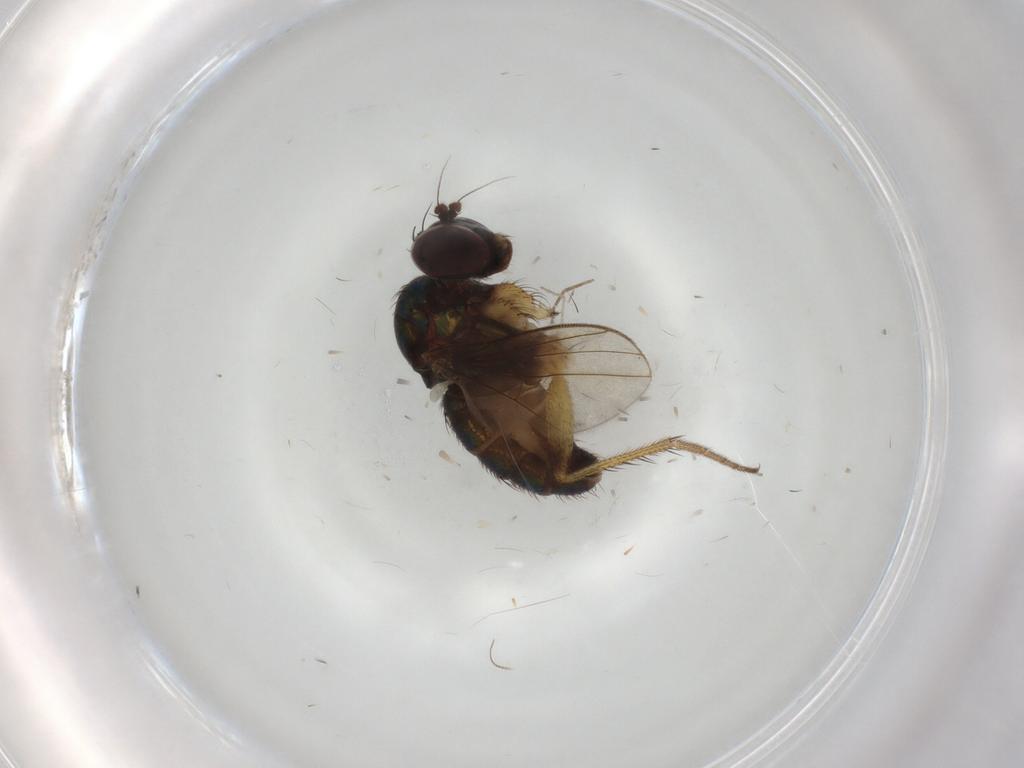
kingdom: Animalia
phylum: Arthropoda
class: Insecta
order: Diptera
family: Dolichopodidae
